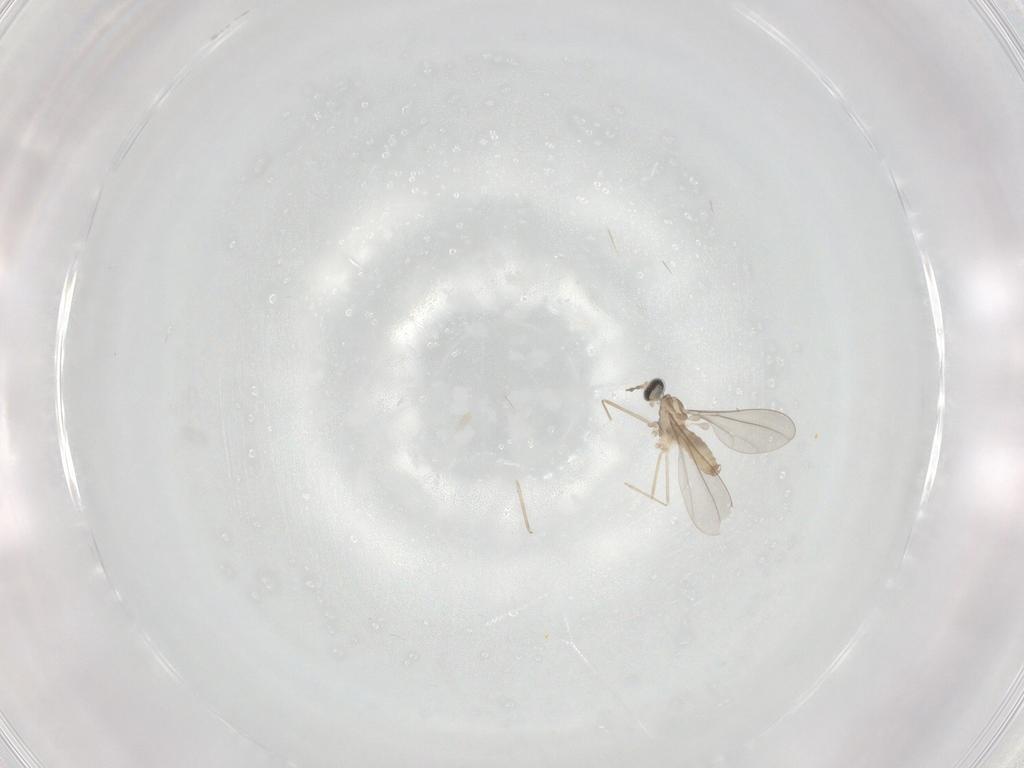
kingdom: Animalia
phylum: Arthropoda
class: Insecta
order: Diptera
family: Cecidomyiidae
